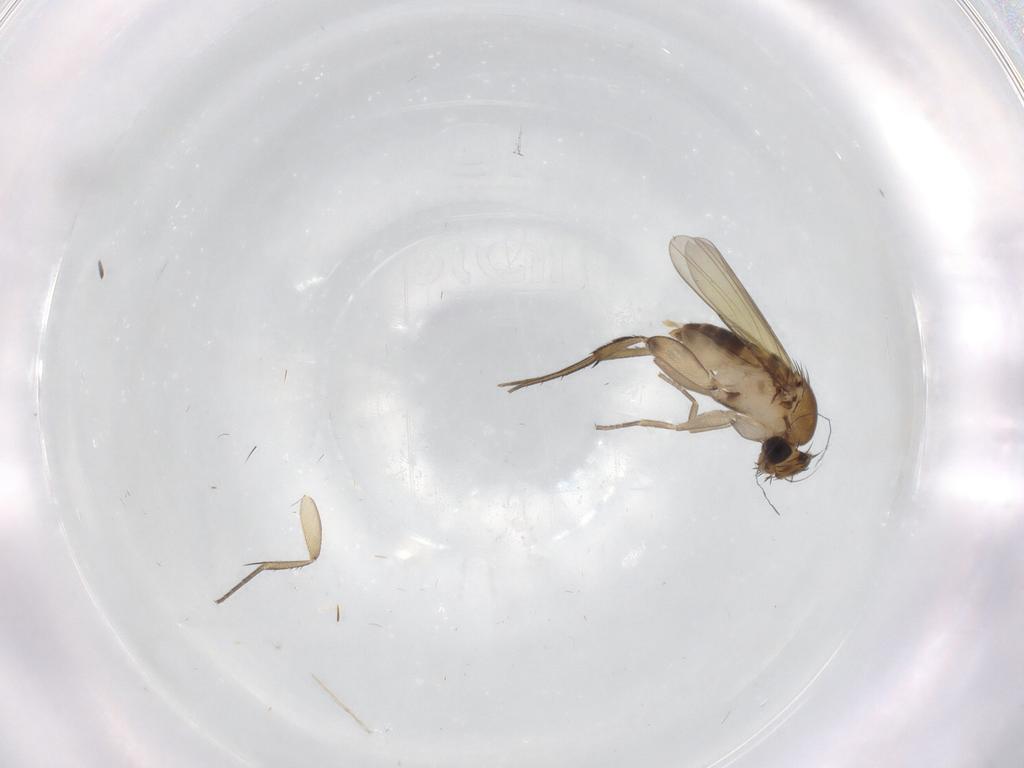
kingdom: Animalia
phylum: Arthropoda
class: Insecta
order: Diptera
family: Phoridae
